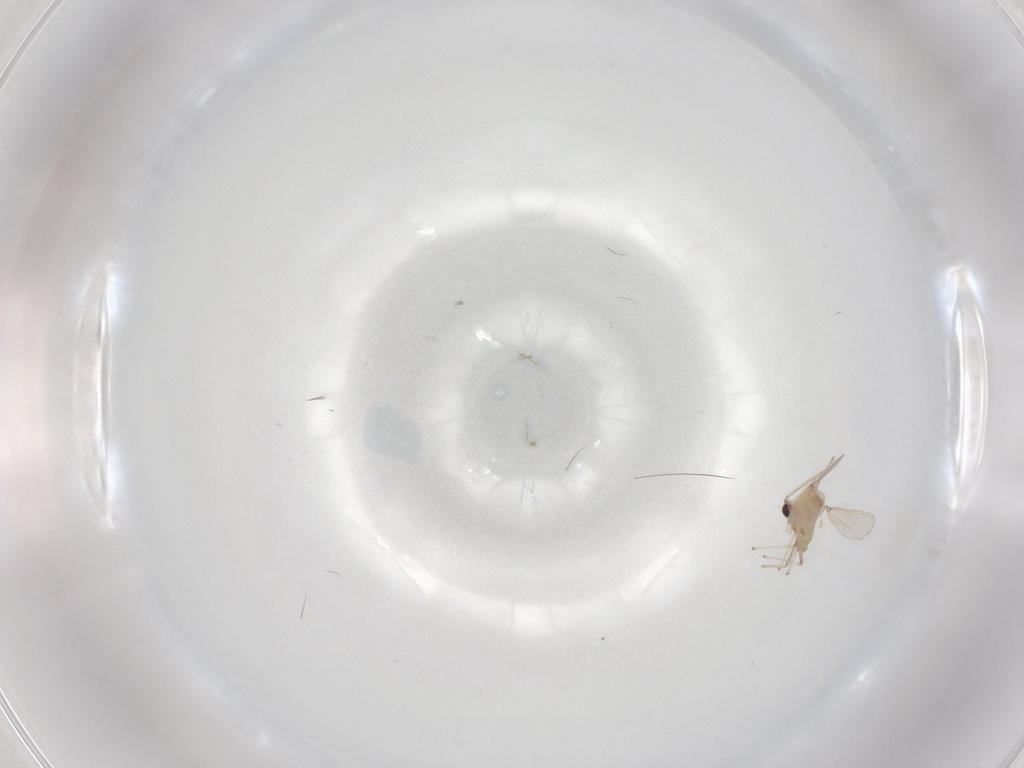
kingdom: Animalia
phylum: Arthropoda
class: Insecta
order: Diptera
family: Chironomidae
